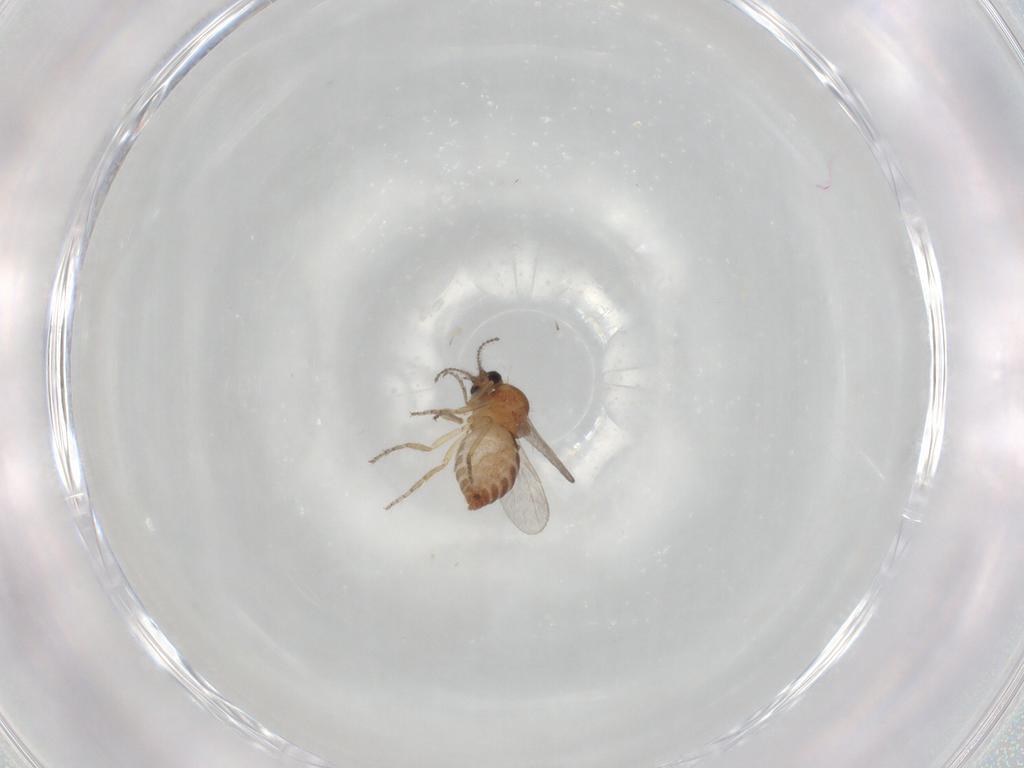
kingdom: Animalia
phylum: Arthropoda
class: Insecta
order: Diptera
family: Ceratopogonidae
